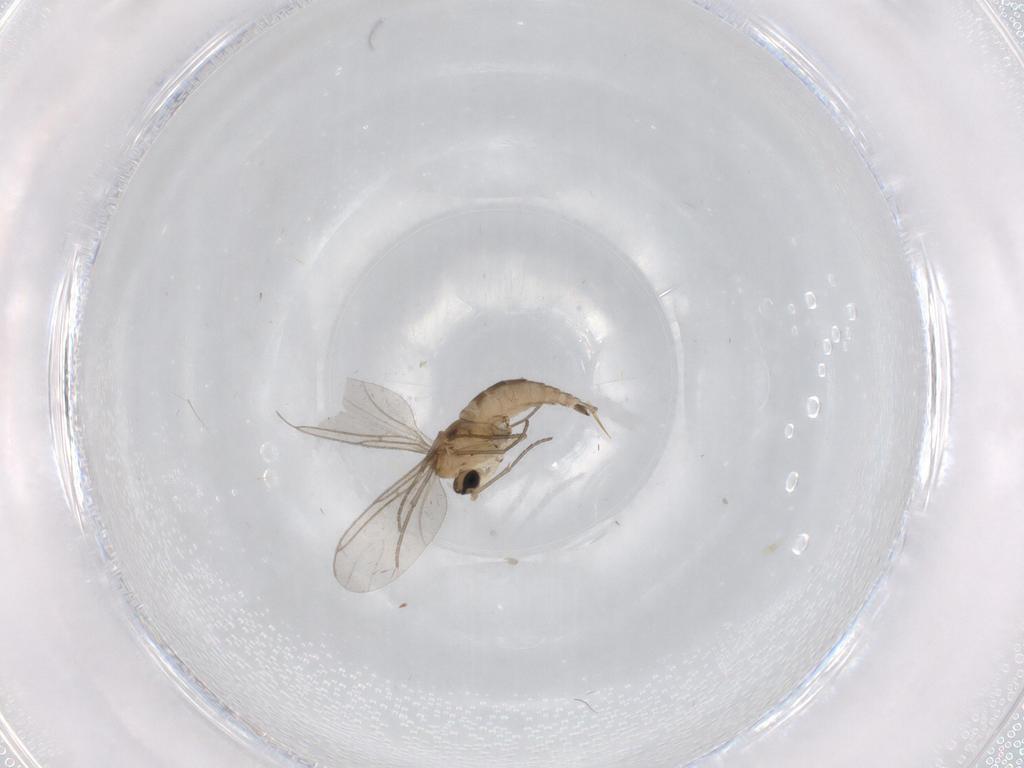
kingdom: Animalia
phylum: Arthropoda
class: Insecta
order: Diptera
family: Sciaridae
